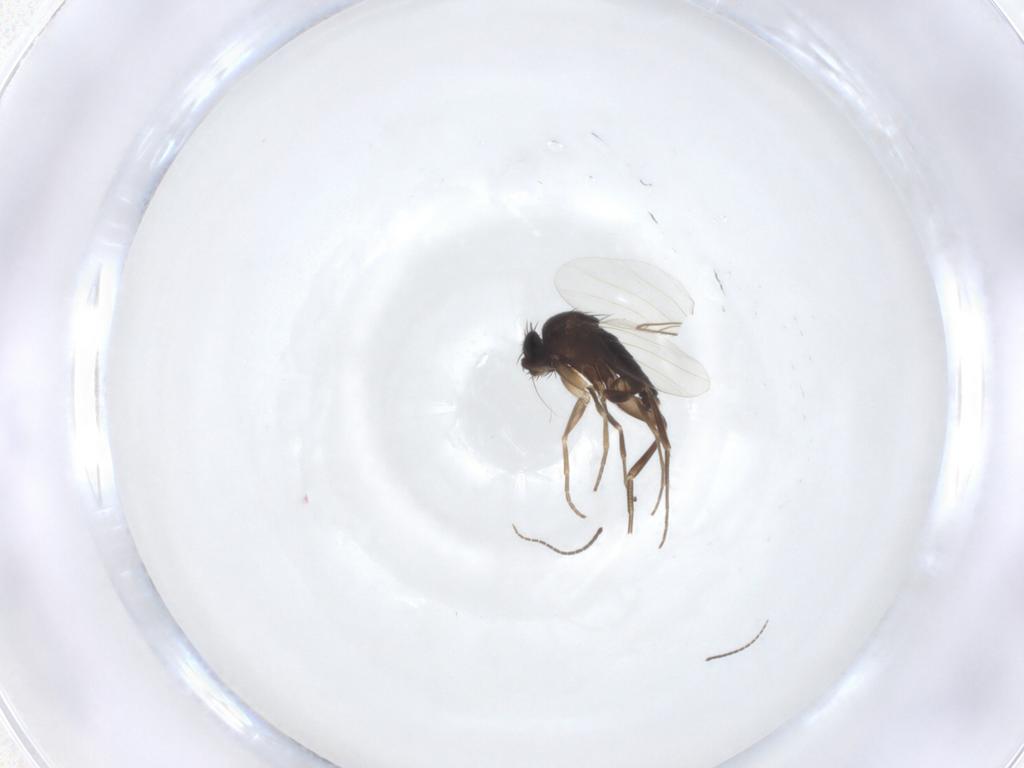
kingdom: Animalia
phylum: Arthropoda
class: Insecta
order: Diptera
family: Phoridae
